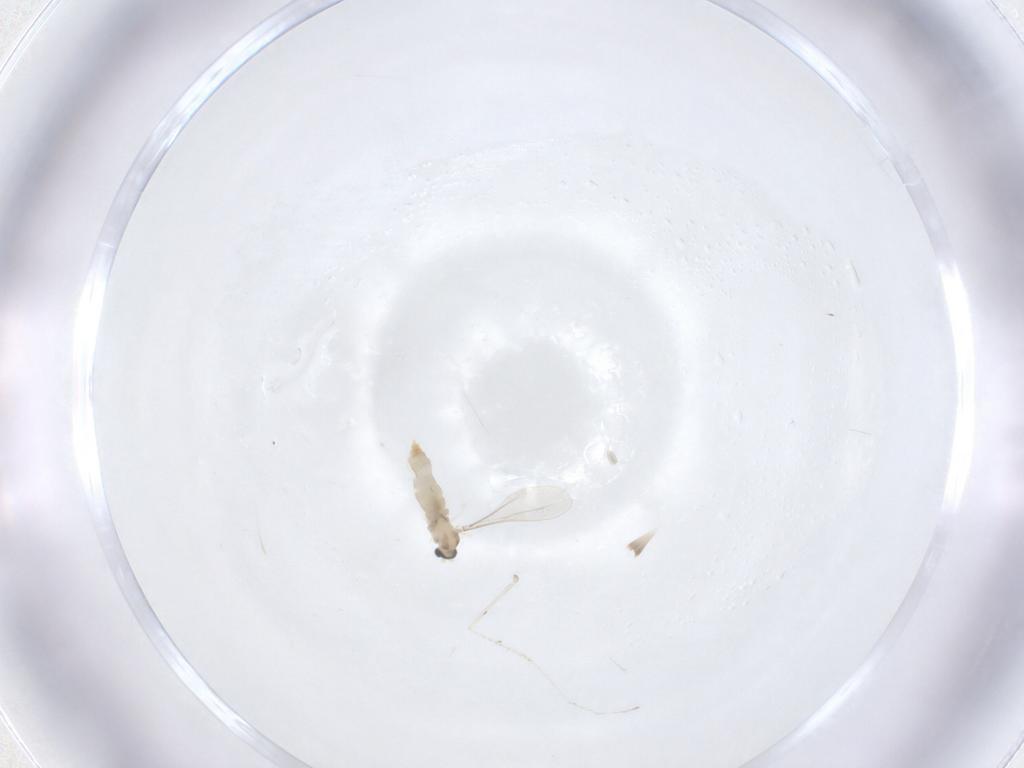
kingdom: Animalia
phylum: Arthropoda
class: Insecta
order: Diptera
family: Cecidomyiidae
